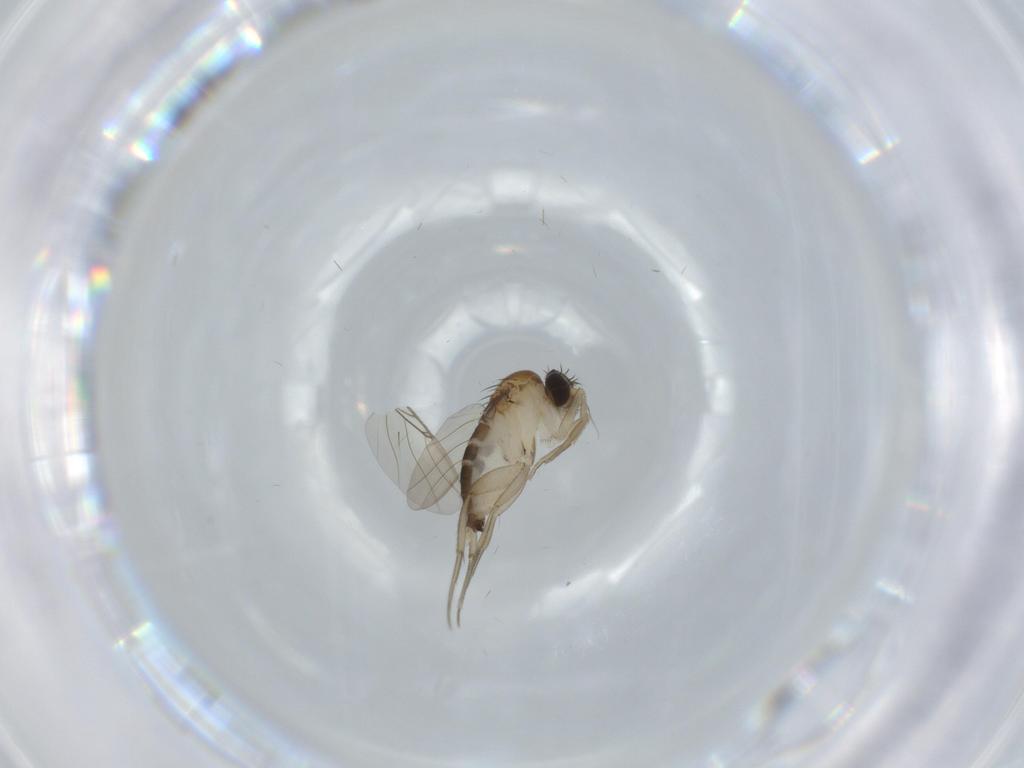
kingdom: Animalia
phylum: Arthropoda
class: Insecta
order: Diptera
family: Phoridae
